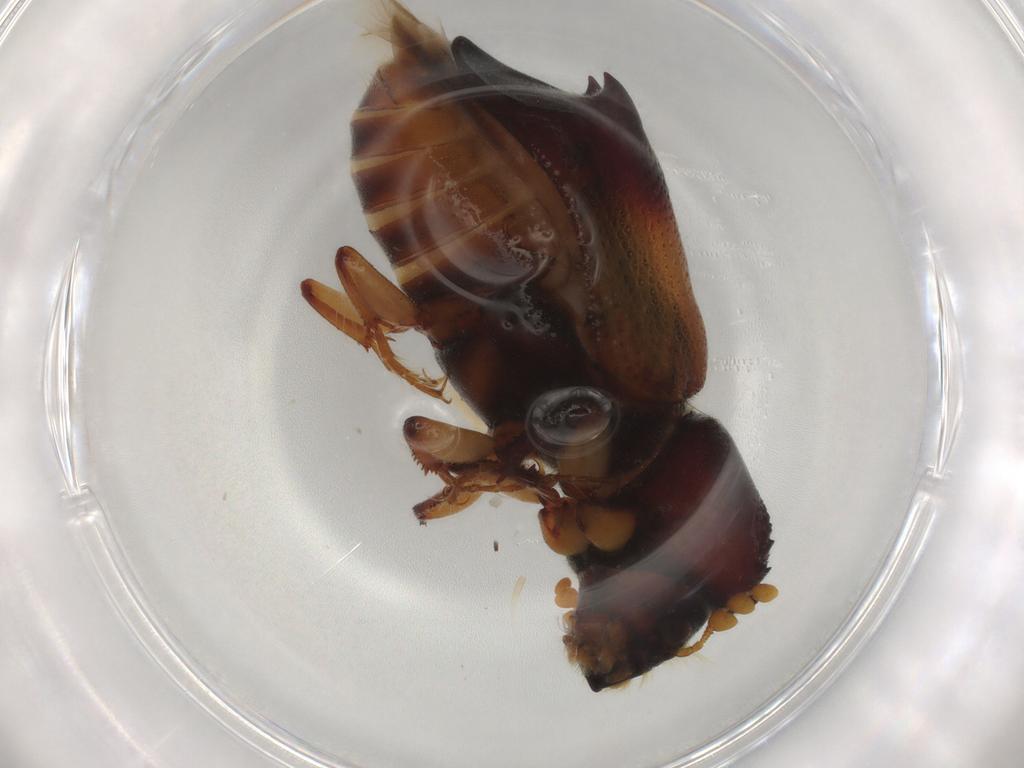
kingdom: Animalia
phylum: Arthropoda
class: Insecta
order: Coleoptera
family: Bostrichidae
